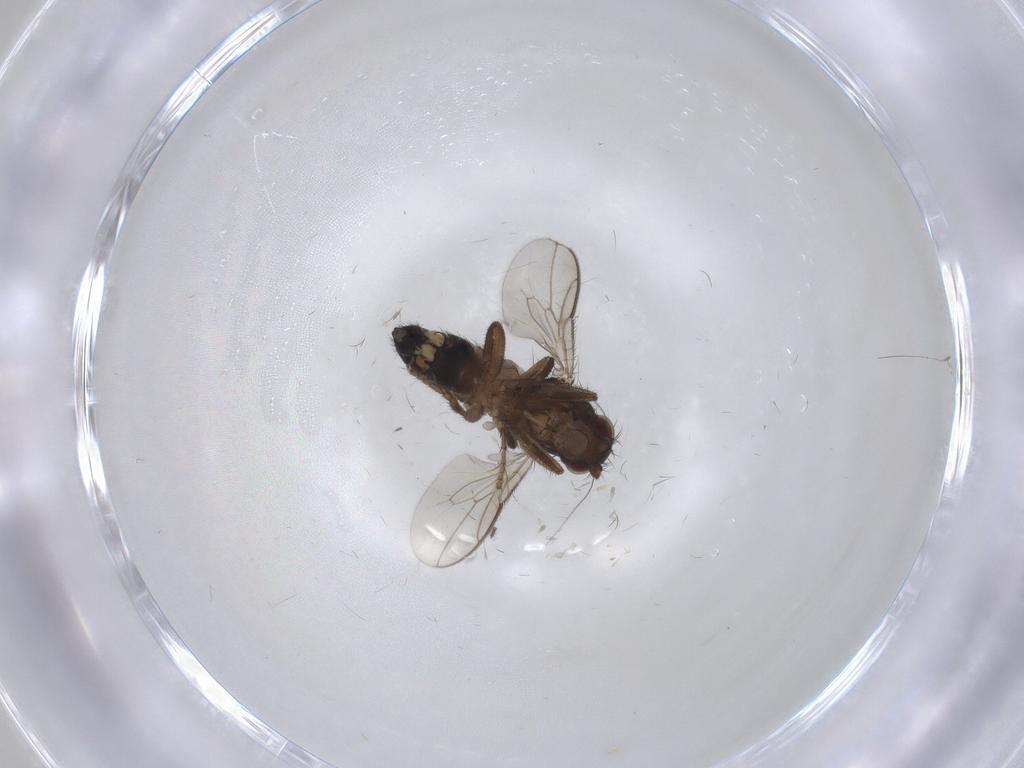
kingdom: Animalia
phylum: Arthropoda
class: Insecta
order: Diptera
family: Sphaeroceridae
